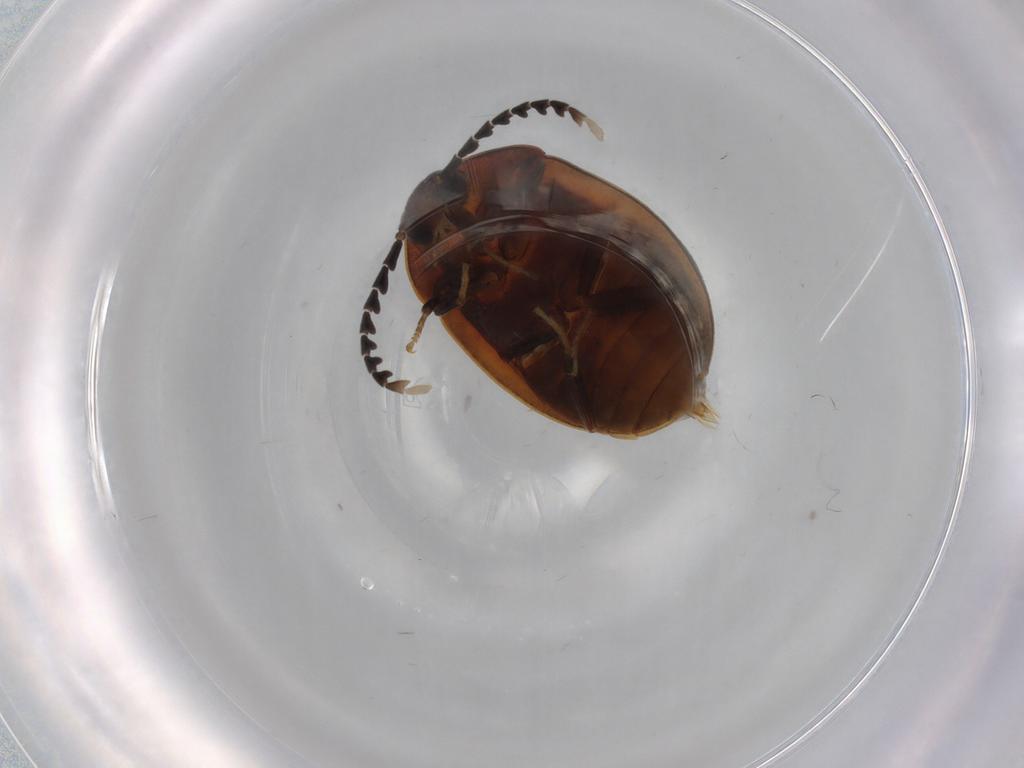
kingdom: Animalia
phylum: Arthropoda
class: Insecta
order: Coleoptera
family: Psephenidae
